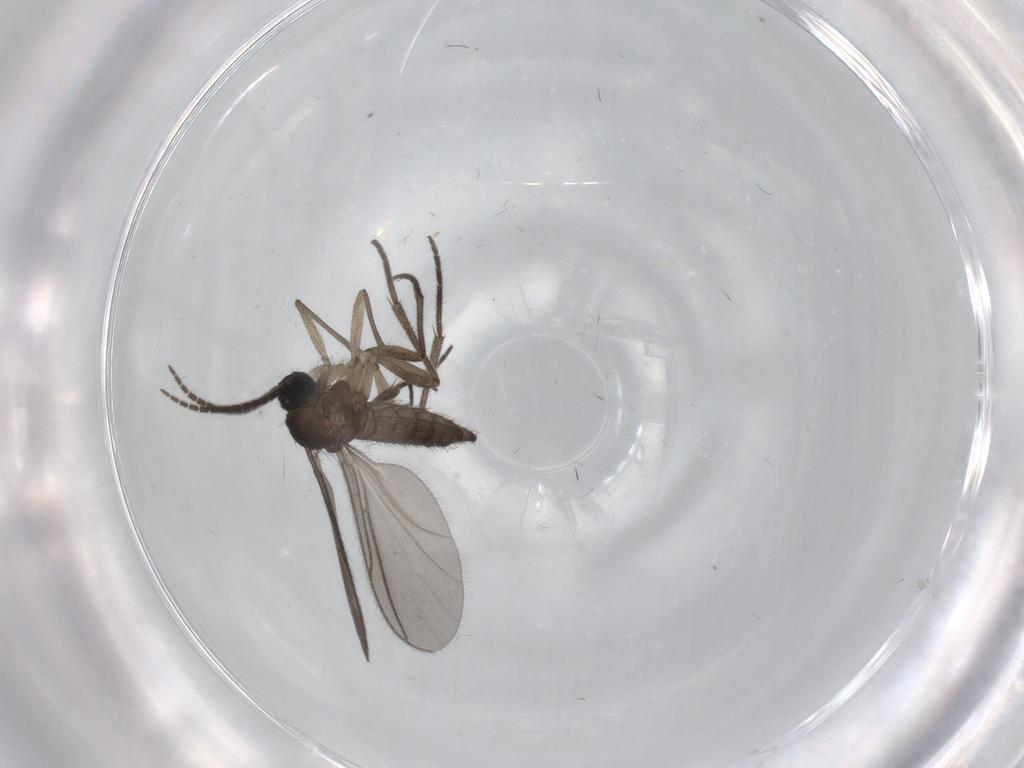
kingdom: Animalia
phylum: Arthropoda
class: Insecta
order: Diptera
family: Sciaridae
